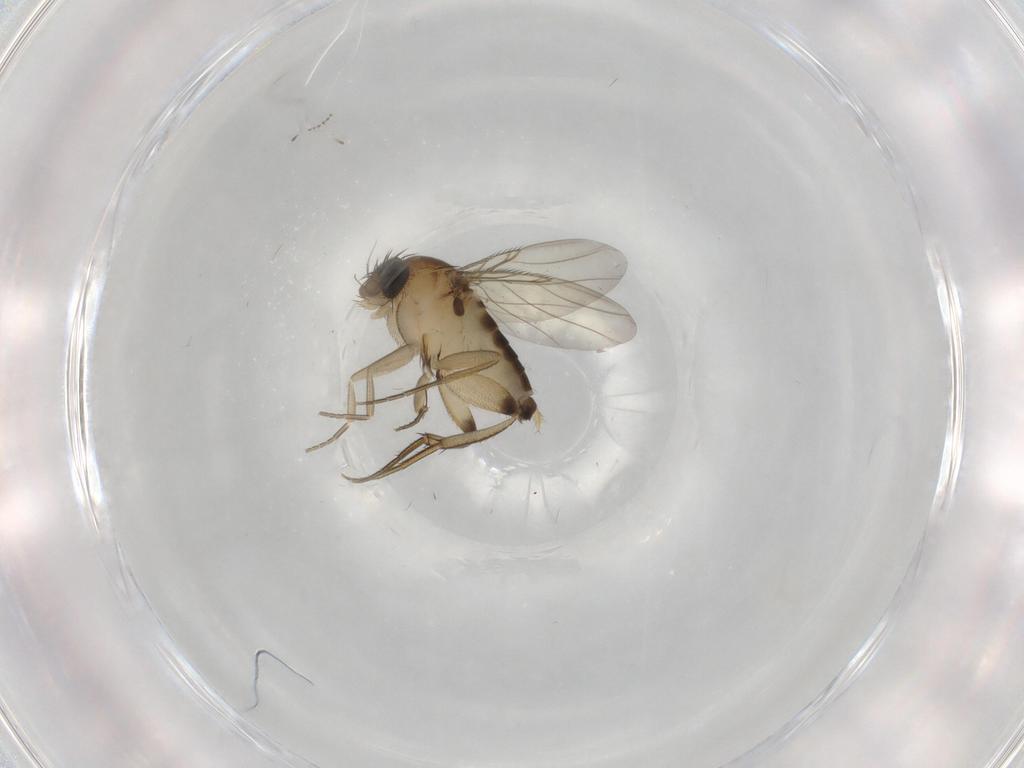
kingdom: Animalia
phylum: Arthropoda
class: Insecta
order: Diptera
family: Phoridae
